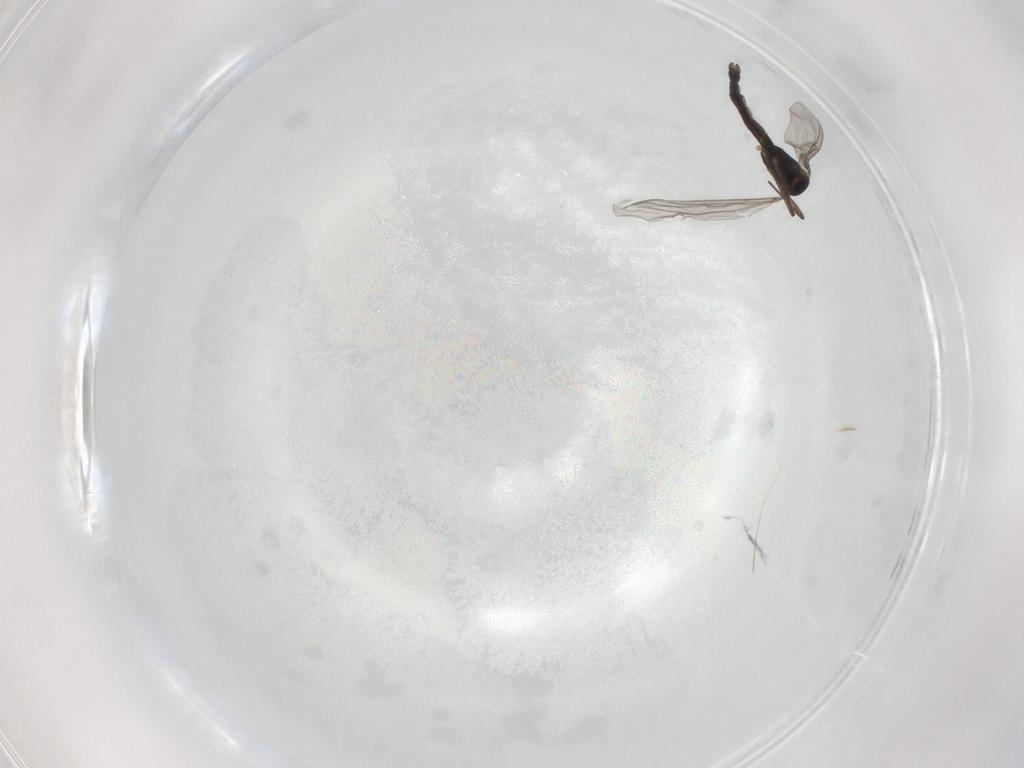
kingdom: Animalia
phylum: Arthropoda
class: Insecta
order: Diptera
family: Chironomidae
